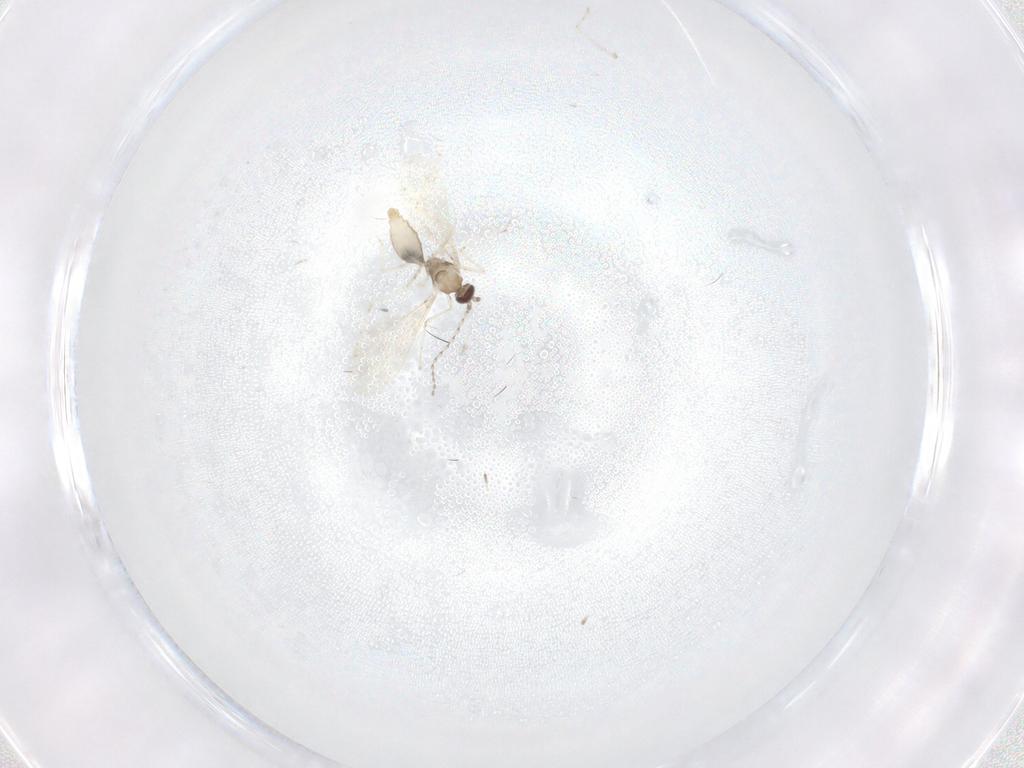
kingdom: Animalia
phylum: Arthropoda
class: Insecta
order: Diptera
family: Cecidomyiidae
